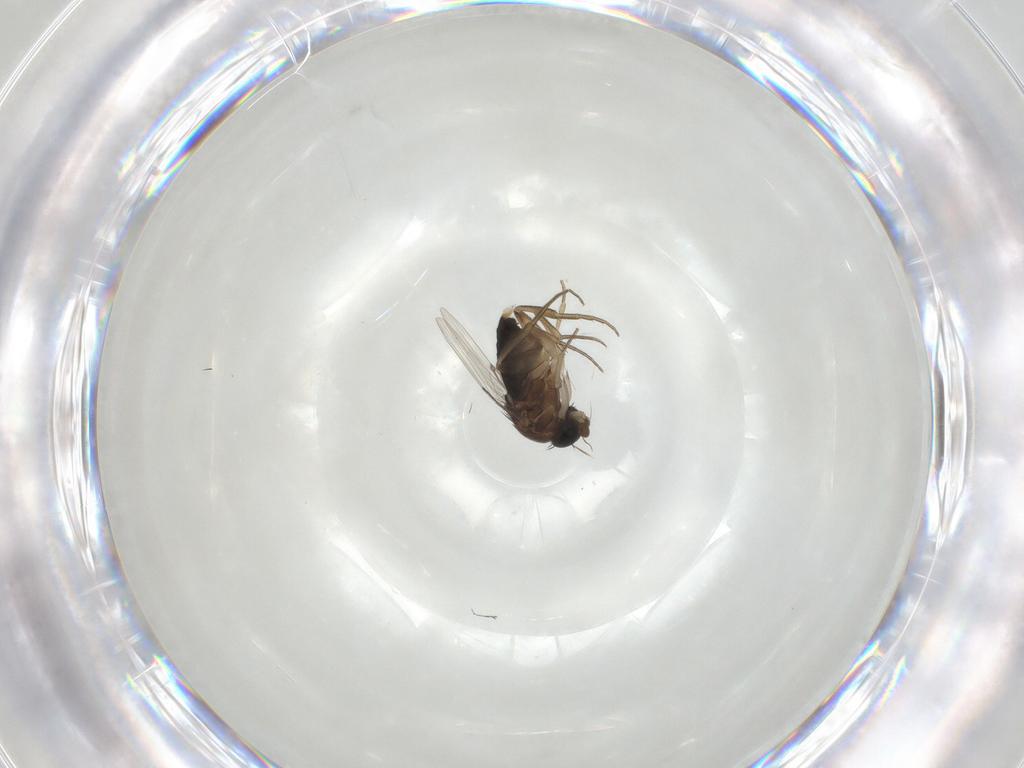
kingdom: Animalia
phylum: Arthropoda
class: Insecta
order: Diptera
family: Phoridae
